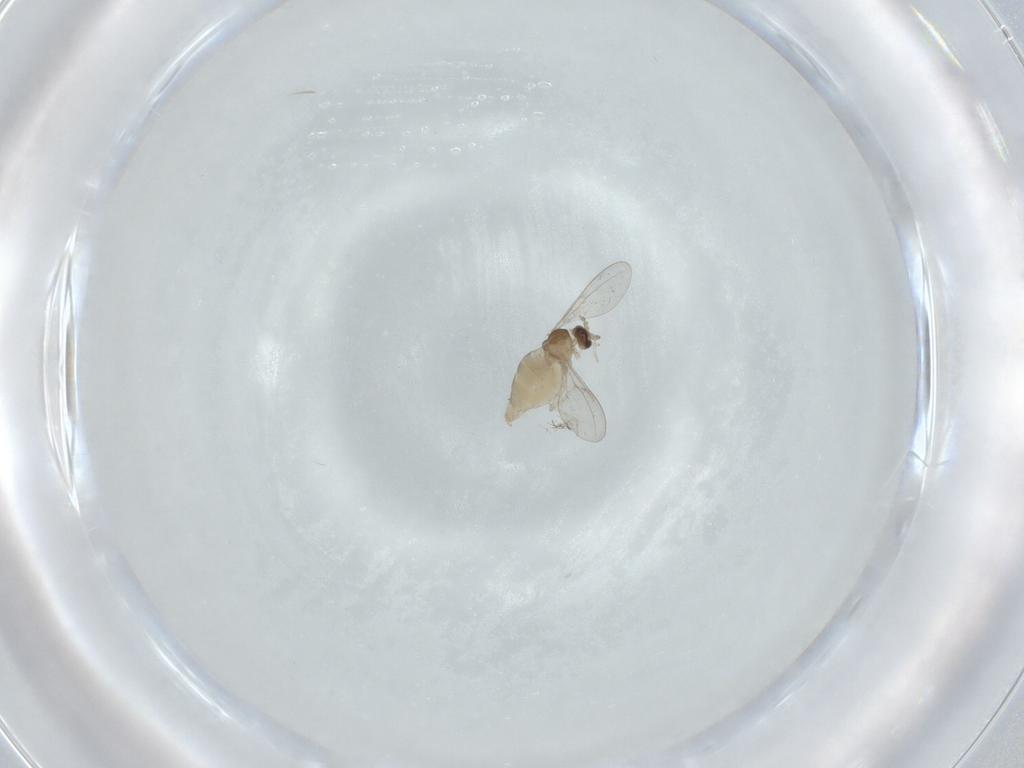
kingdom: Animalia
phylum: Arthropoda
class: Insecta
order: Diptera
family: Cecidomyiidae
